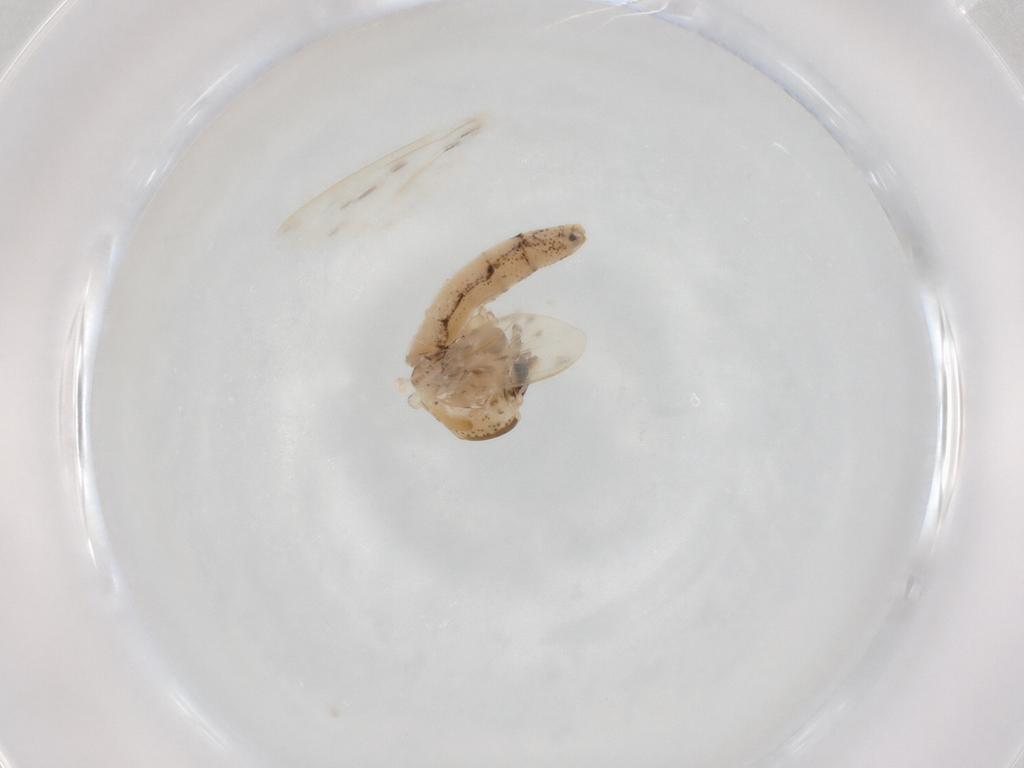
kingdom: Animalia
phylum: Arthropoda
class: Insecta
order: Diptera
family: Chaoboridae
